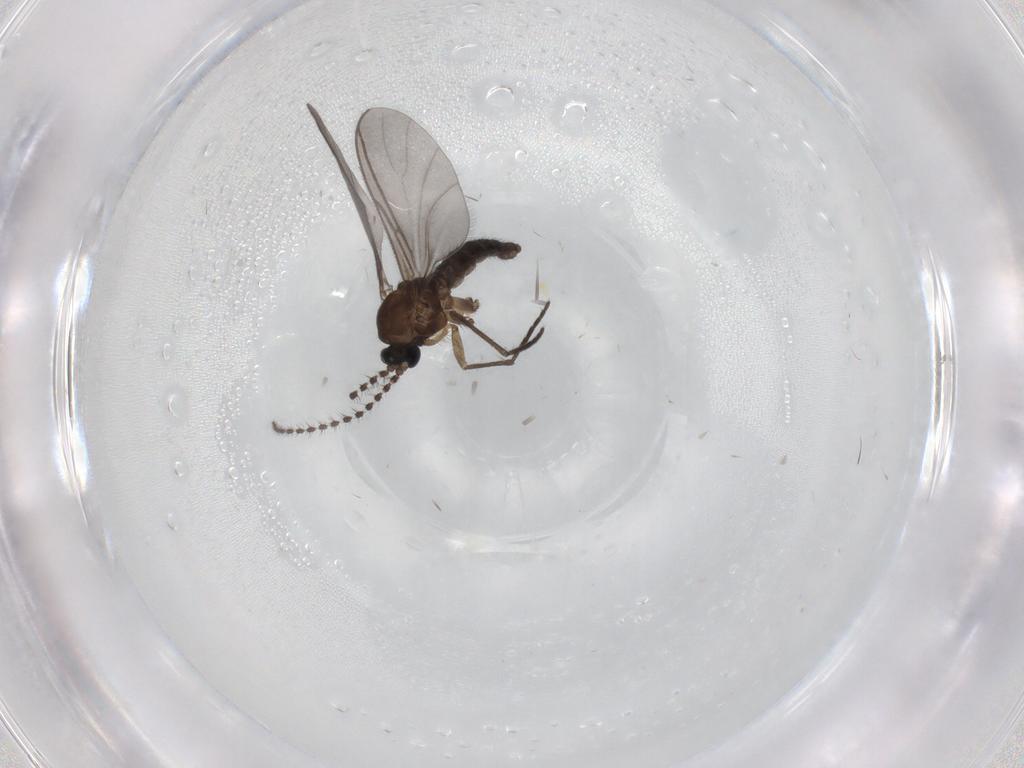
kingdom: Animalia
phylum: Arthropoda
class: Insecta
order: Diptera
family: Sciaridae
